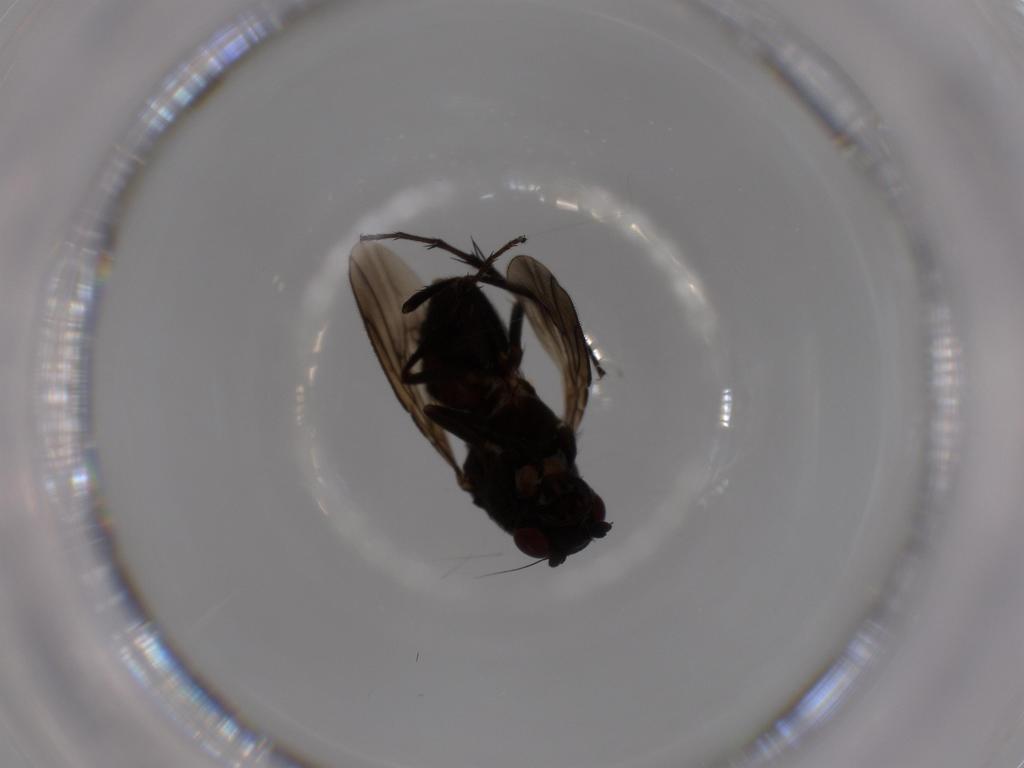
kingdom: Animalia
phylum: Arthropoda
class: Insecta
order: Diptera
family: Sphaeroceridae
